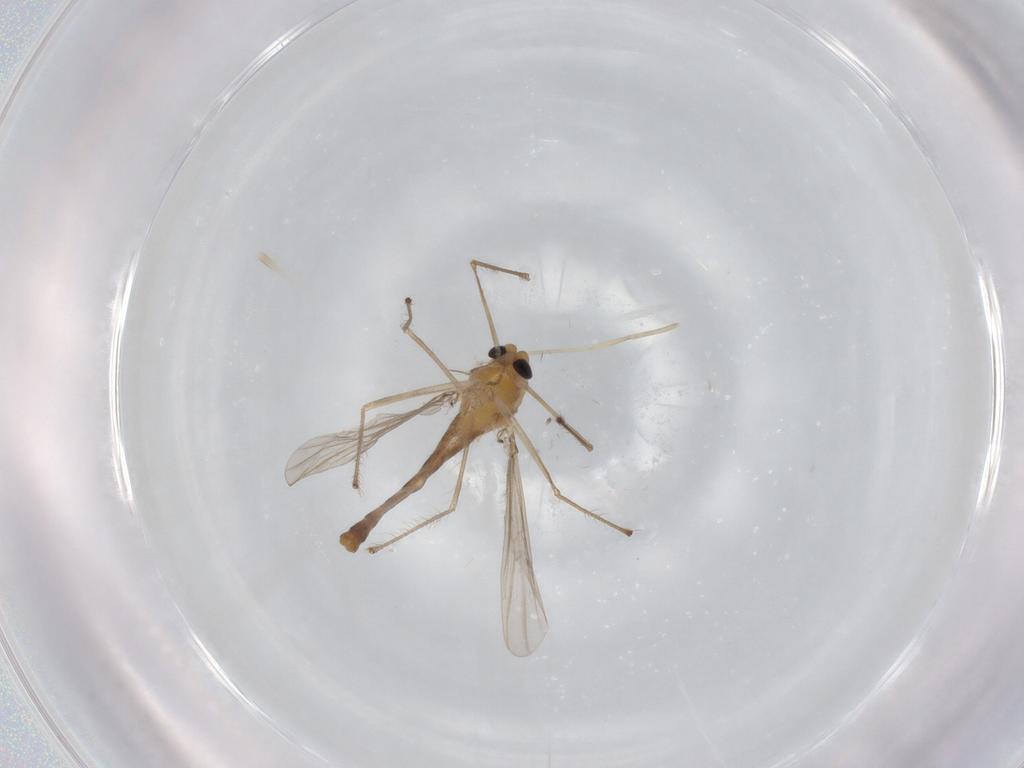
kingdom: Animalia
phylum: Arthropoda
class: Insecta
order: Diptera
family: Chironomidae
